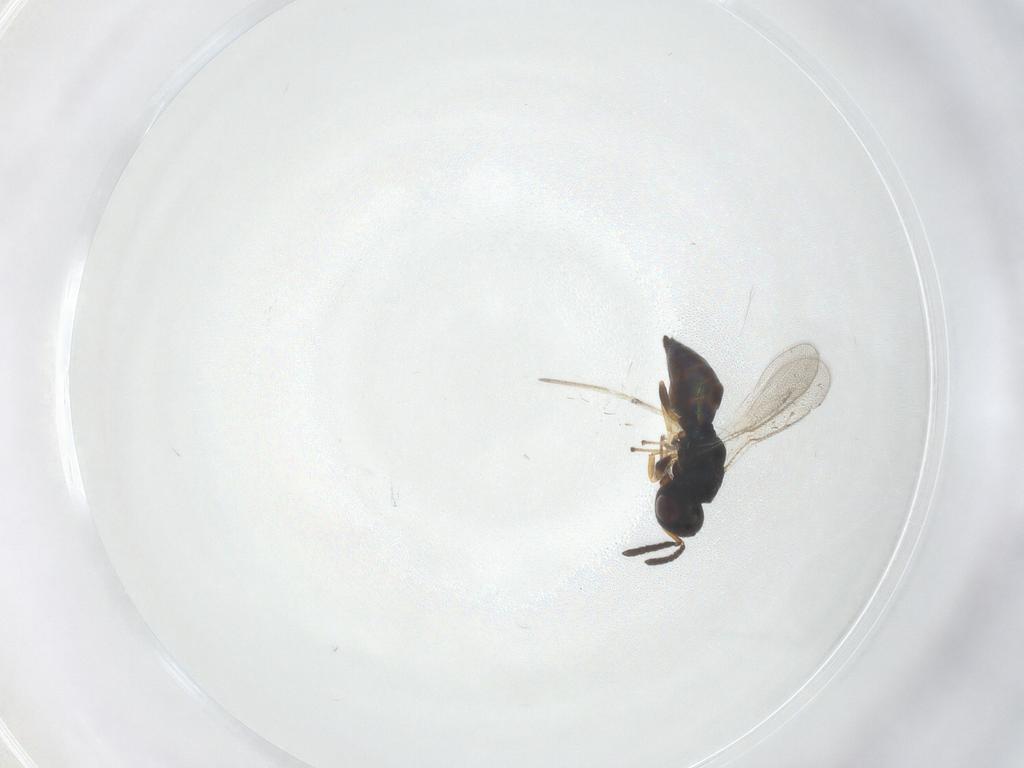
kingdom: Animalia
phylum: Arthropoda
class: Insecta
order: Hymenoptera
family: Pteromalidae
